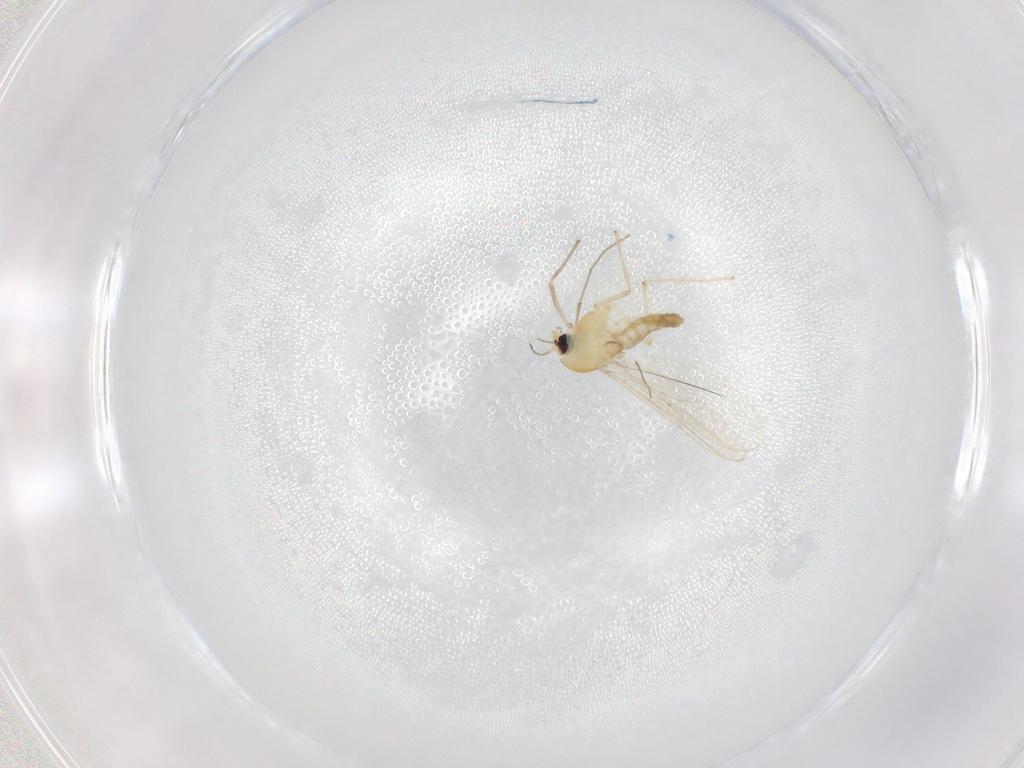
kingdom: Animalia
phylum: Arthropoda
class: Insecta
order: Diptera
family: Chironomidae
